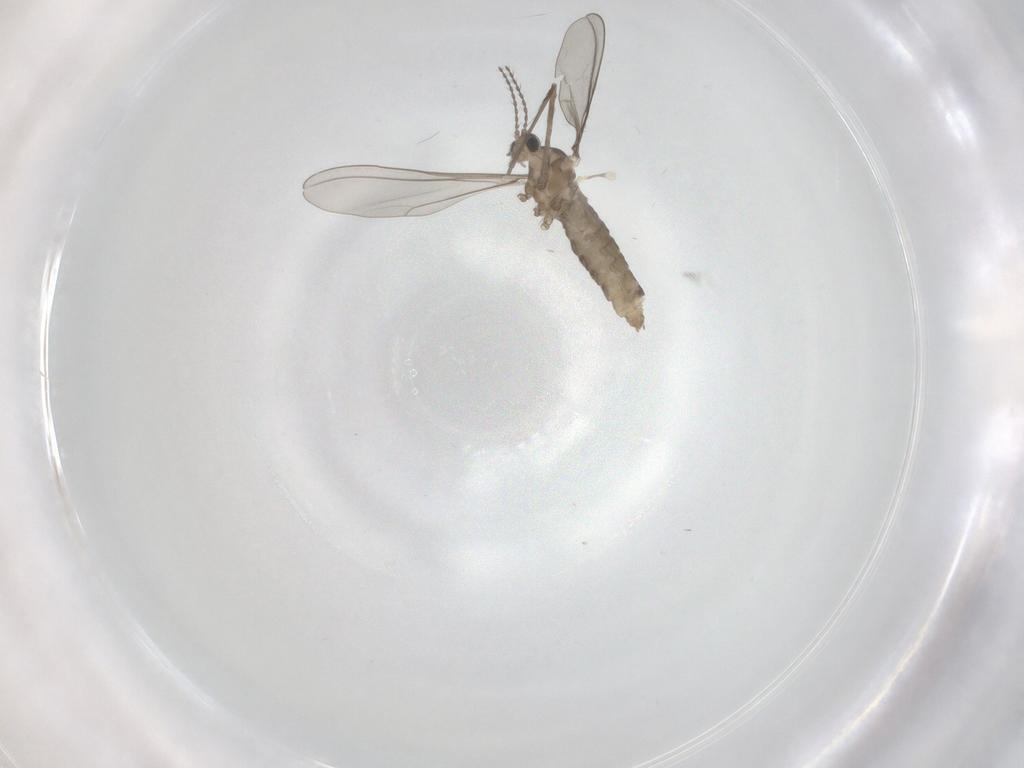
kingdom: Animalia
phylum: Arthropoda
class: Insecta
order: Diptera
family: Cecidomyiidae
